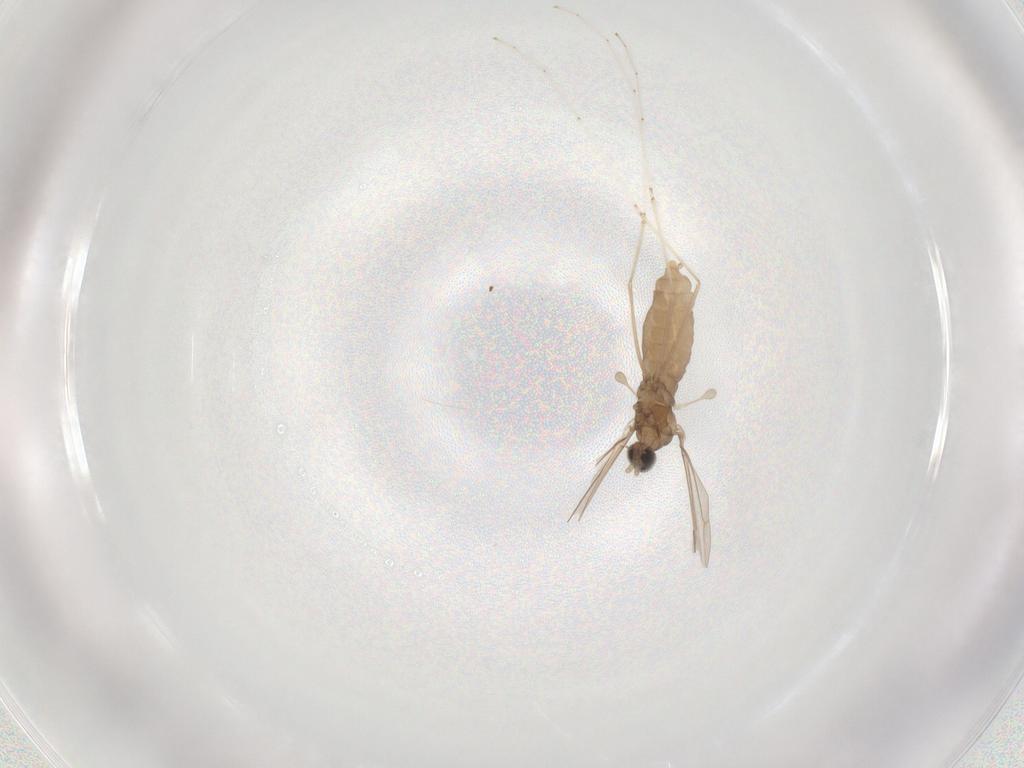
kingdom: Animalia
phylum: Arthropoda
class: Insecta
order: Diptera
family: Cecidomyiidae
